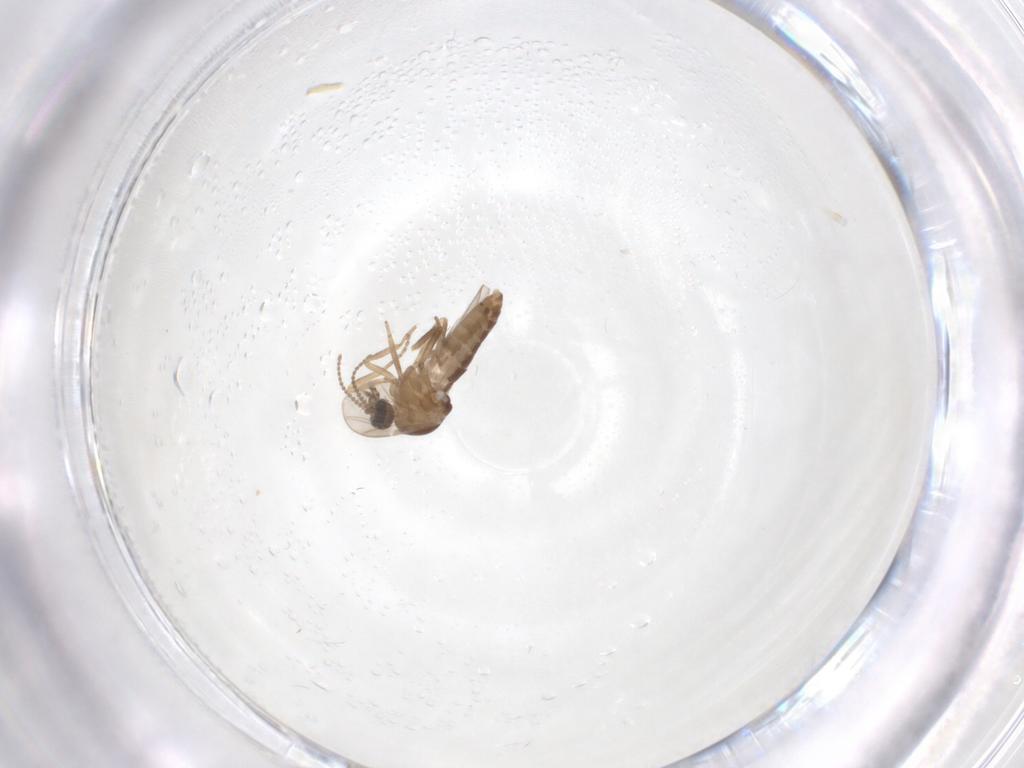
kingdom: Animalia
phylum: Arthropoda
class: Insecta
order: Diptera
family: Ceratopogonidae
